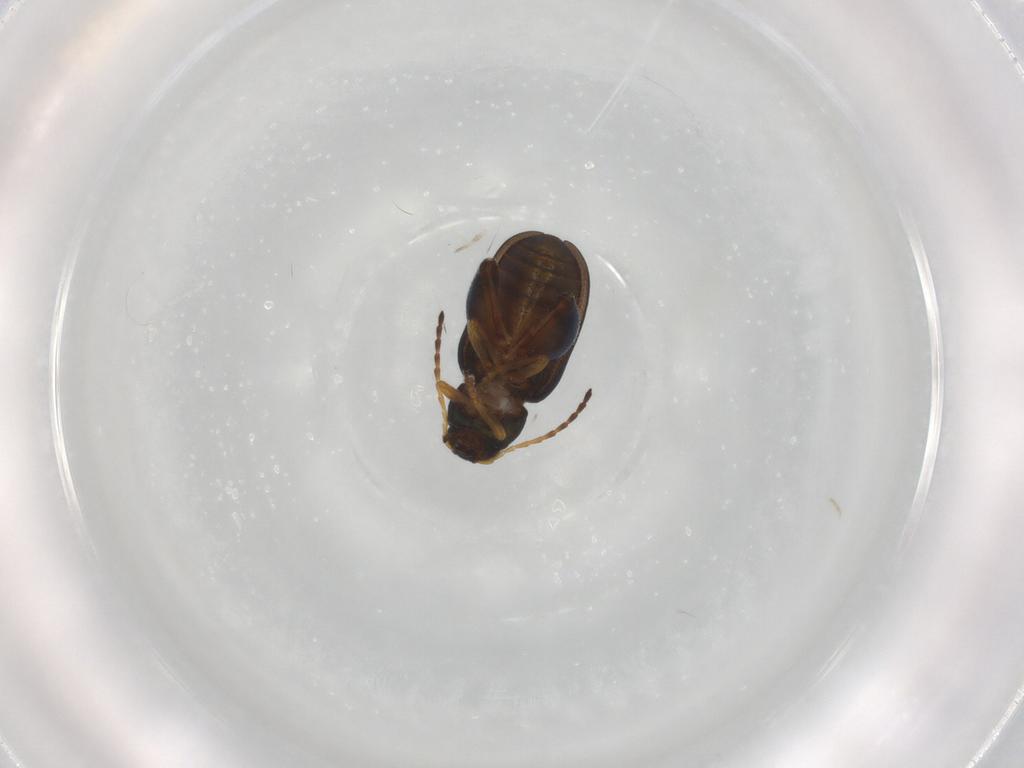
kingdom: Animalia
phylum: Arthropoda
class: Insecta
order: Coleoptera
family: Chrysomelidae
